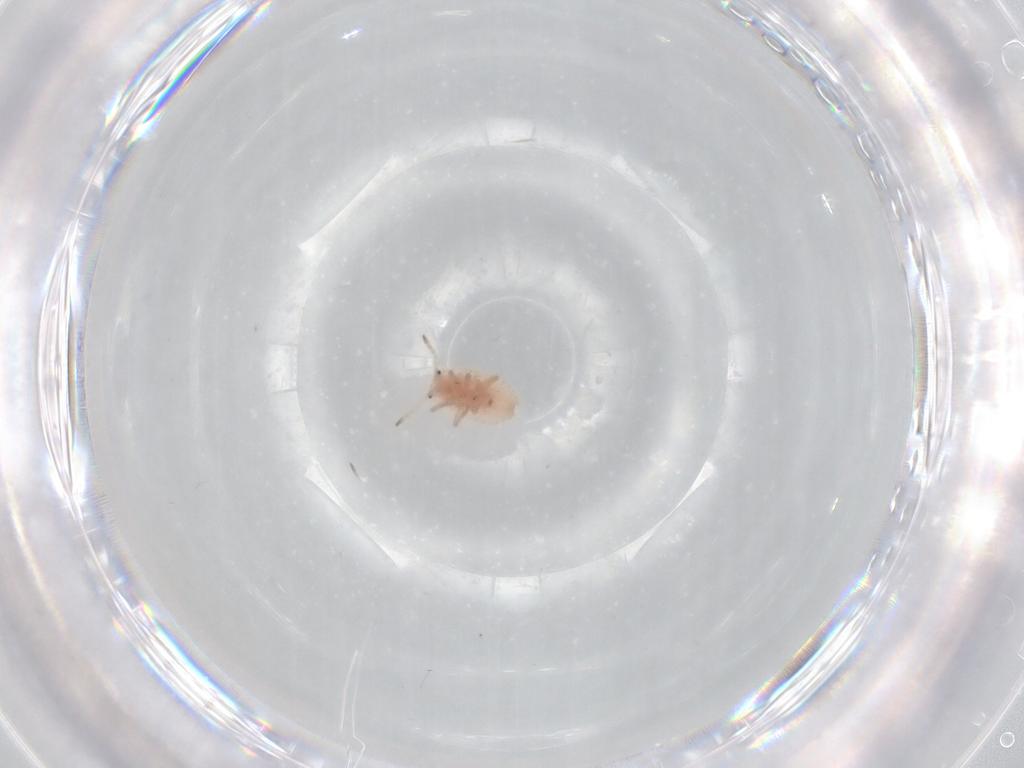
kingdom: Animalia
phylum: Arthropoda
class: Insecta
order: Hemiptera
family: Coccoidea_incertae_sedis
